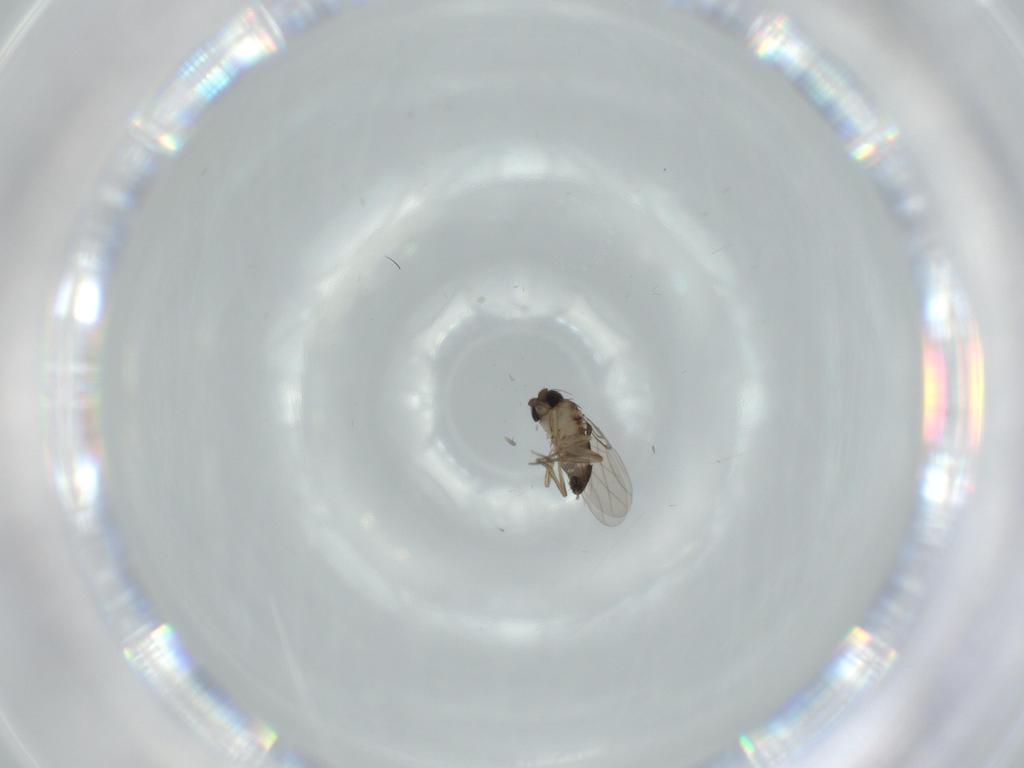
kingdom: Animalia
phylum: Arthropoda
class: Insecta
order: Diptera
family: Phoridae
